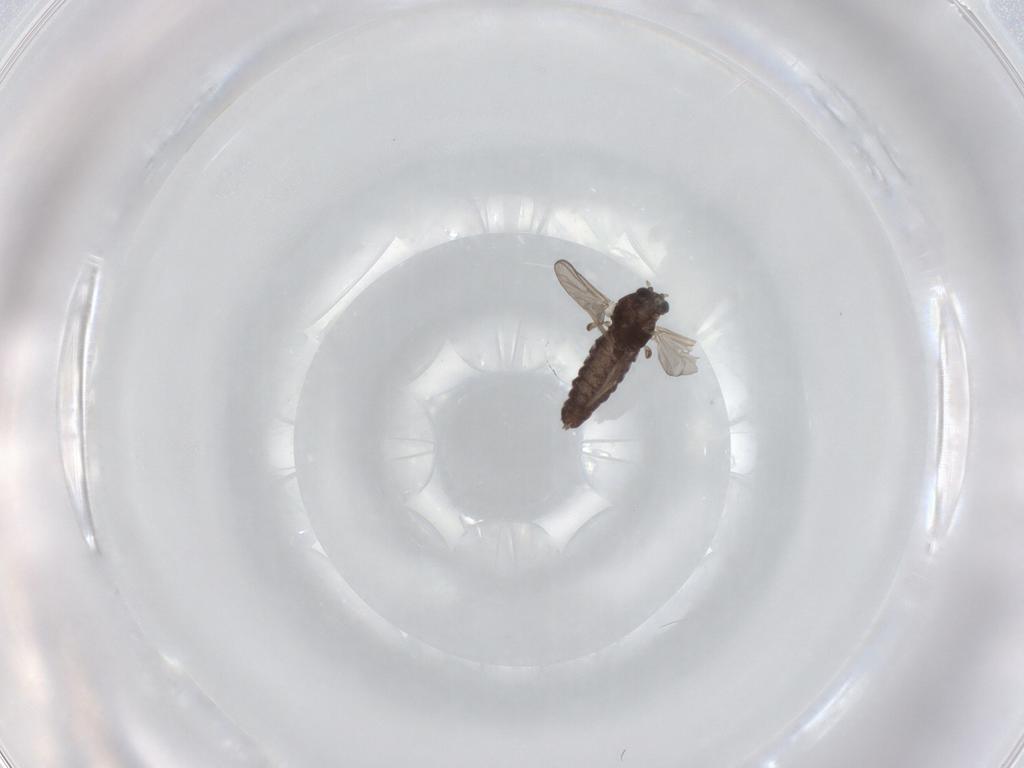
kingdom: Animalia
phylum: Arthropoda
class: Insecta
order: Diptera
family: Chironomidae
